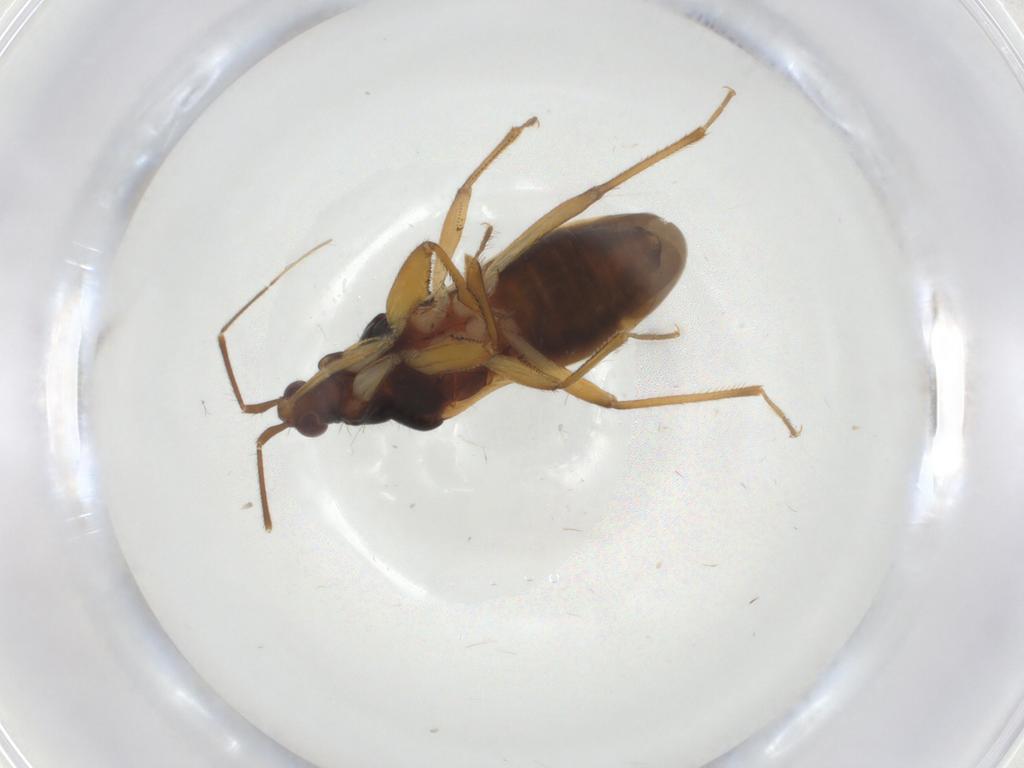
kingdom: Animalia
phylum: Arthropoda
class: Insecta
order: Hemiptera
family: Nabidae
